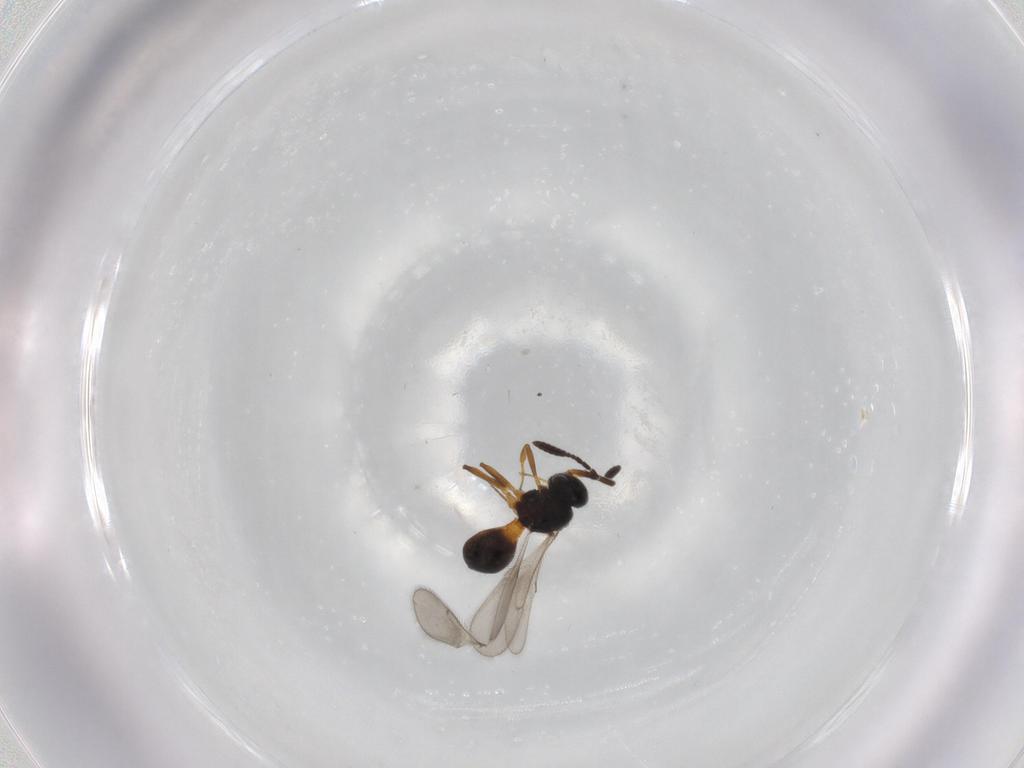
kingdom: Animalia
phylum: Arthropoda
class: Insecta
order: Hymenoptera
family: Scelionidae
